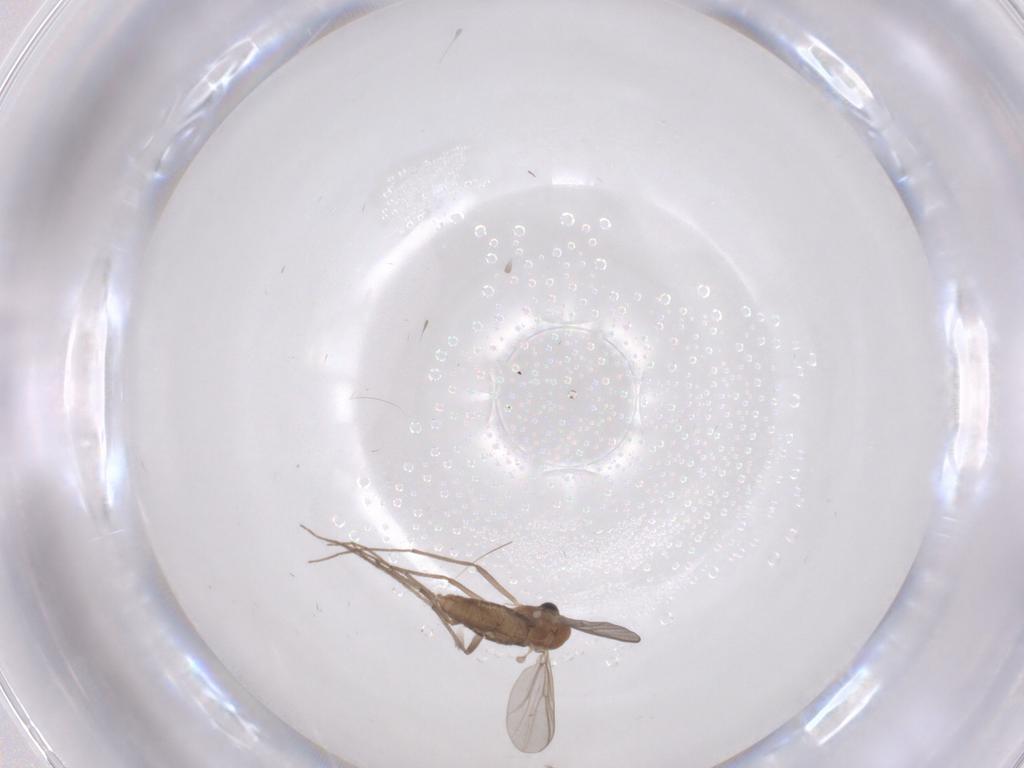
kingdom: Animalia
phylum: Arthropoda
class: Insecta
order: Diptera
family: Chironomidae
